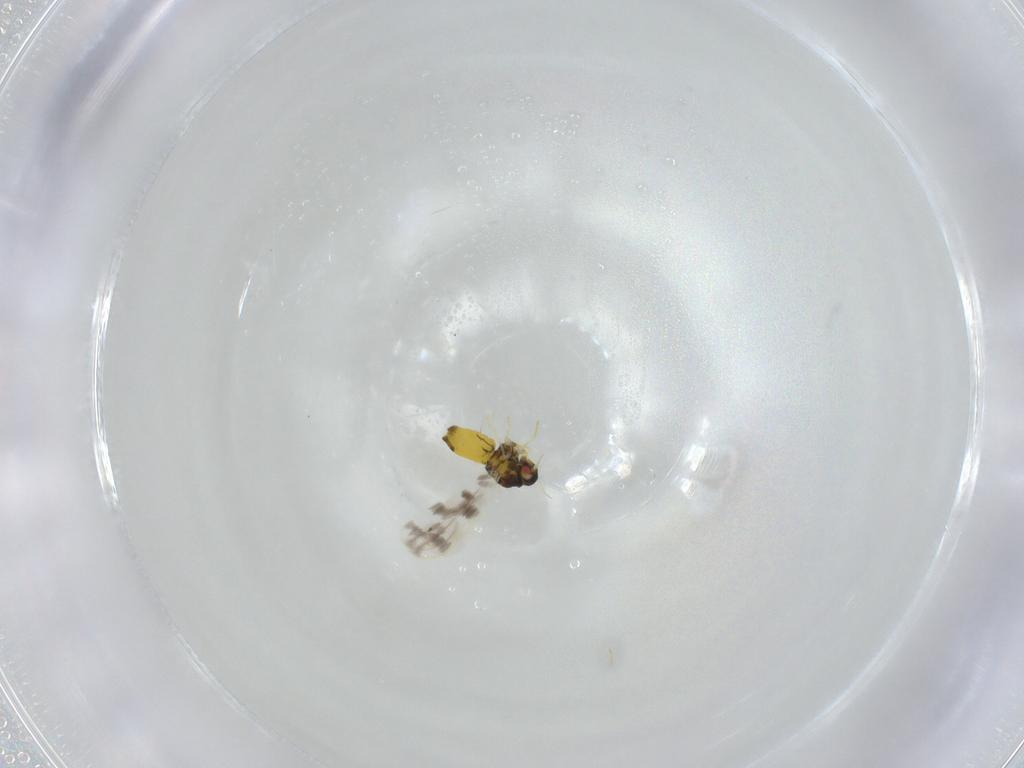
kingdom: Animalia
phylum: Arthropoda
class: Insecta
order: Hemiptera
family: Aleyrodidae
